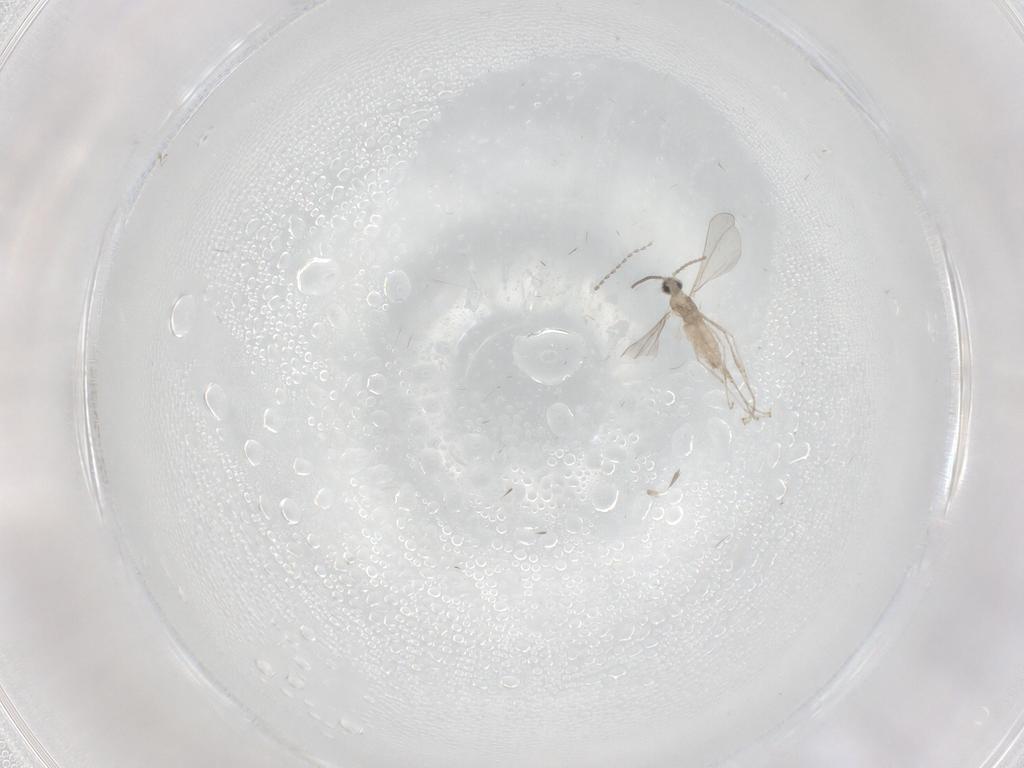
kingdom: Animalia
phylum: Arthropoda
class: Insecta
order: Diptera
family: Cecidomyiidae
